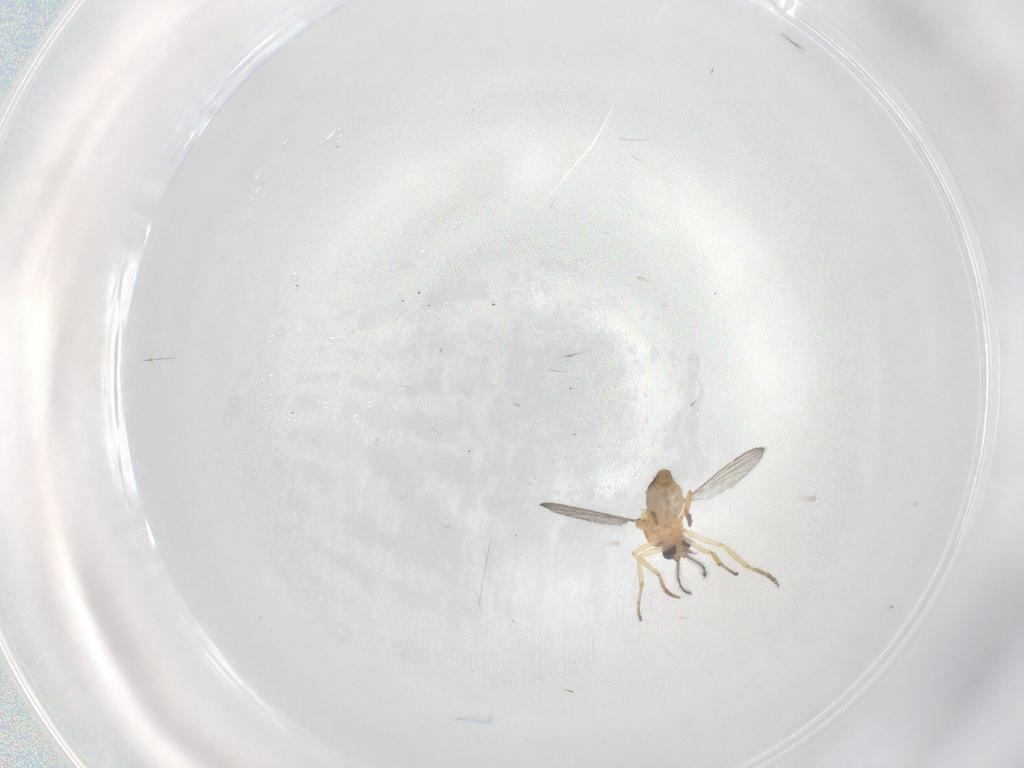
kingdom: Animalia
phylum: Arthropoda
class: Insecta
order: Diptera
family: Ceratopogonidae
